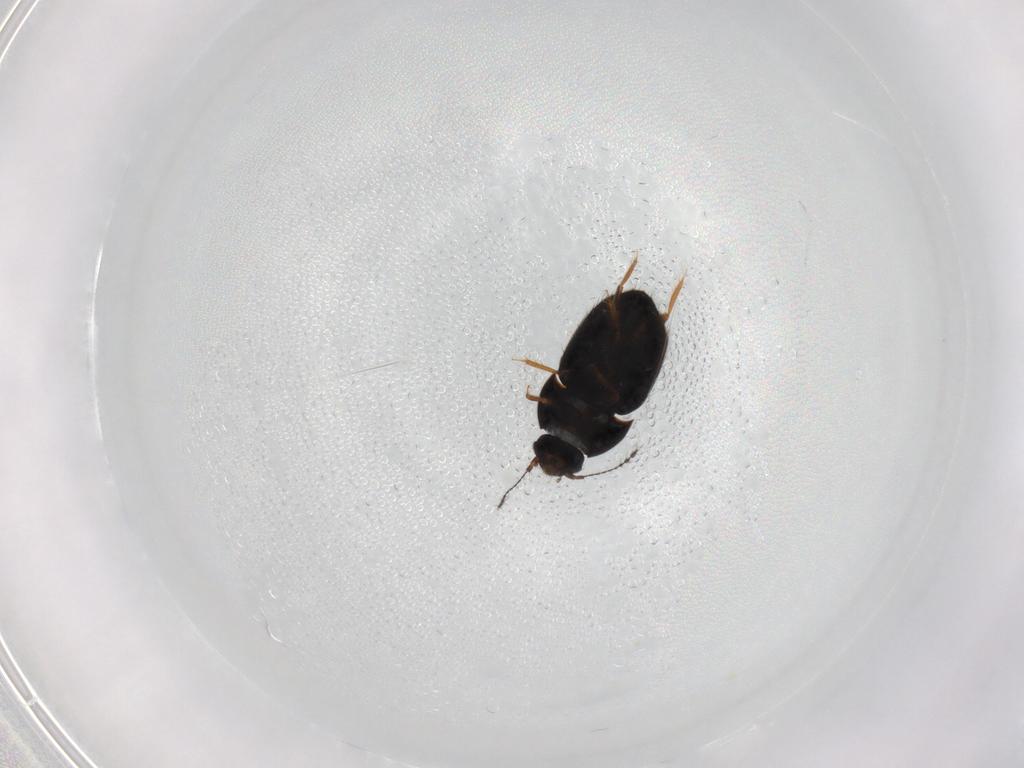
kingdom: Animalia
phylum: Arthropoda
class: Insecta
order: Coleoptera
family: Ptiliidae
